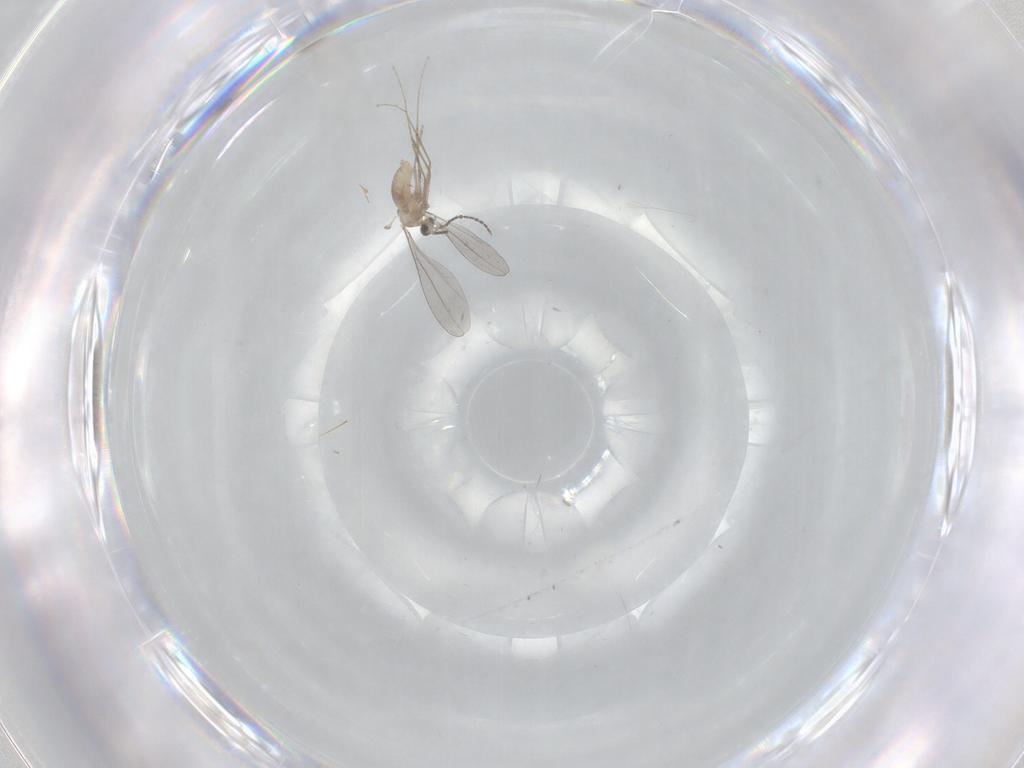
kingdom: Animalia
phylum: Arthropoda
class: Insecta
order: Diptera
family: Cecidomyiidae
